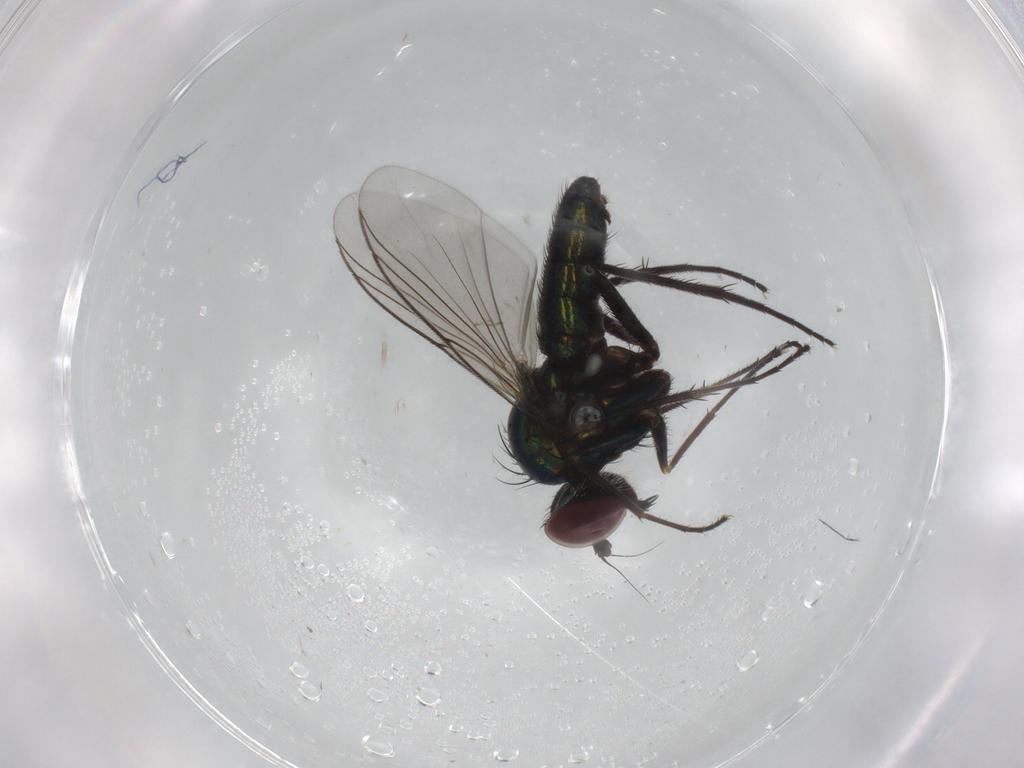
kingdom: Animalia
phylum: Arthropoda
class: Insecta
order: Diptera
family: Dolichopodidae
